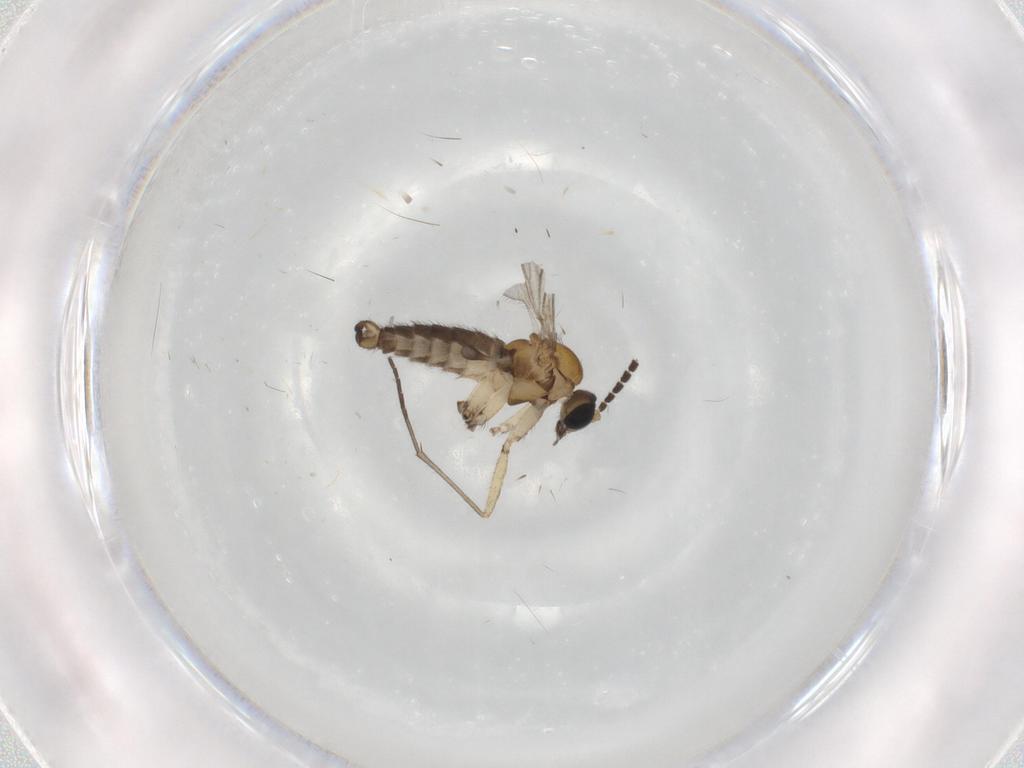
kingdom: Animalia
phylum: Arthropoda
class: Insecta
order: Diptera
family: Sciaridae
